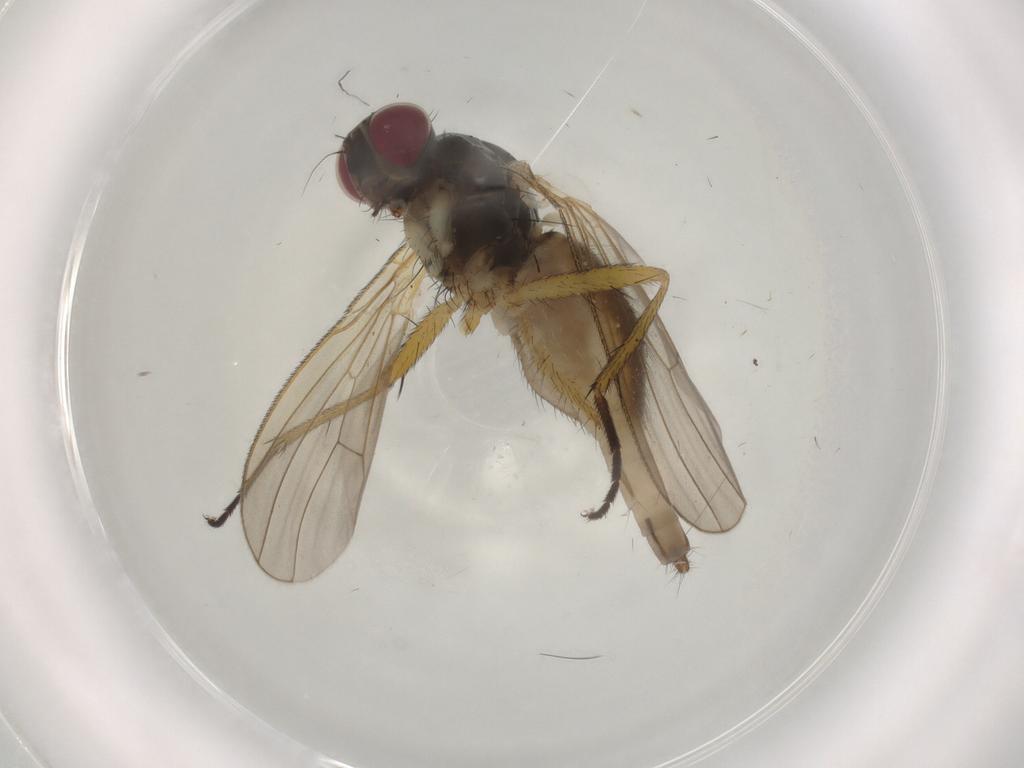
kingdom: Animalia
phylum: Arthropoda
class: Insecta
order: Diptera
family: Muscidae
